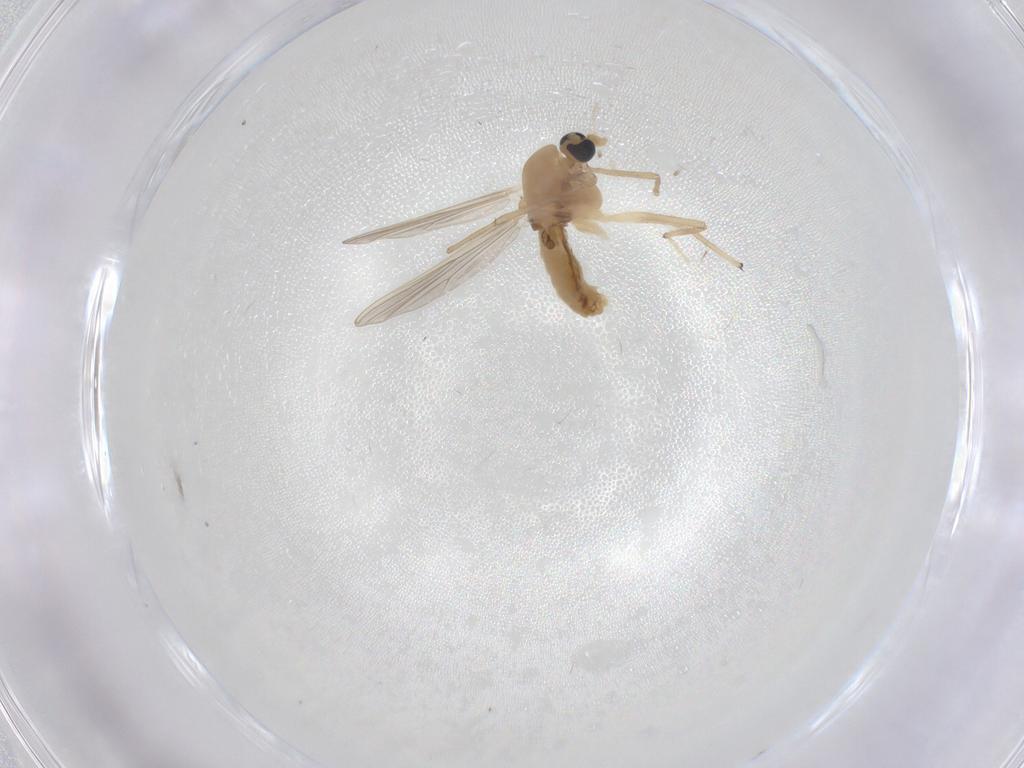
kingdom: Animalia
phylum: Arthropoda
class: Insecta
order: Diptera
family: Chironomidae
